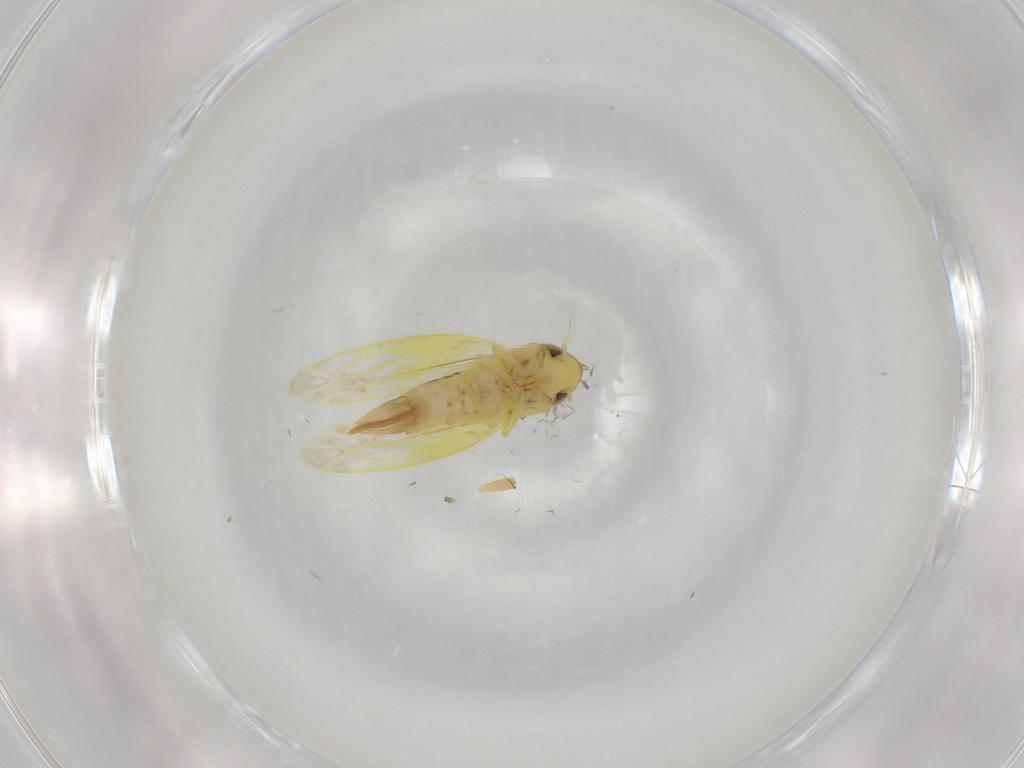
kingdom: Animalia
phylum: Arthropoda
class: Insecta
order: Hemiptera
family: Cicadellidae
